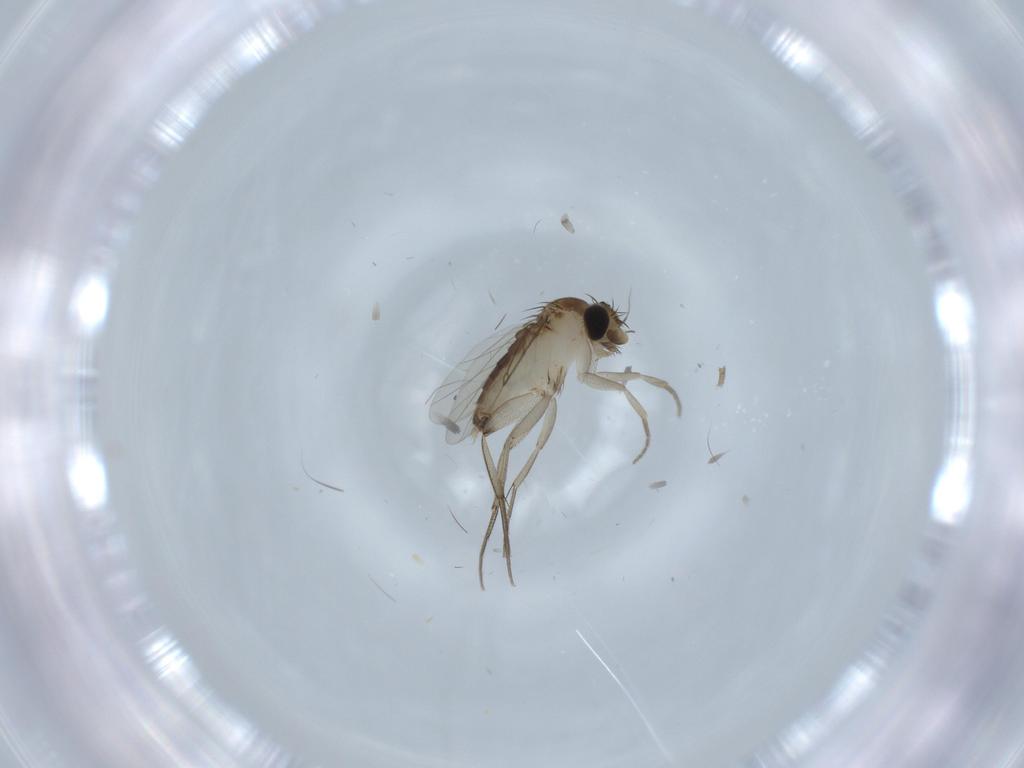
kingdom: Animalia
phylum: Arthropoda
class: Insecta
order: Diptera
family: Phoridae
